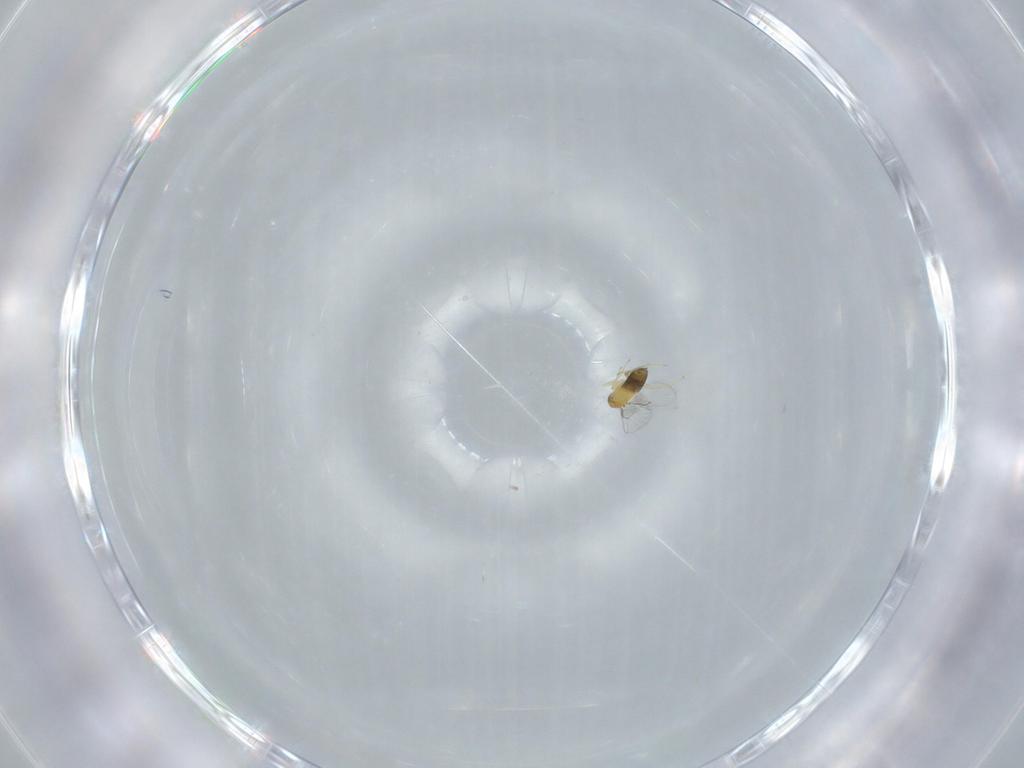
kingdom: Animalia
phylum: Arthropoda
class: Insecta
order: Hymenoptera
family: Trichogrammatidae
